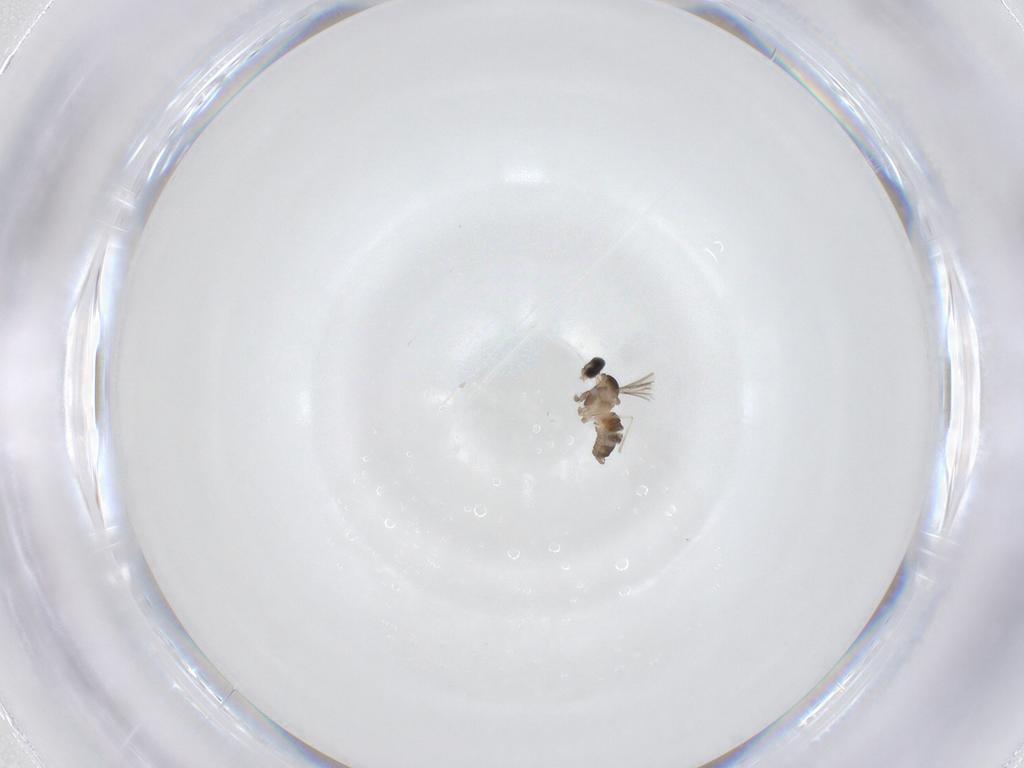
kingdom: Animalia
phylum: Arthropoda
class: Insecta
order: Diptera
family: Cecidomyiidae
